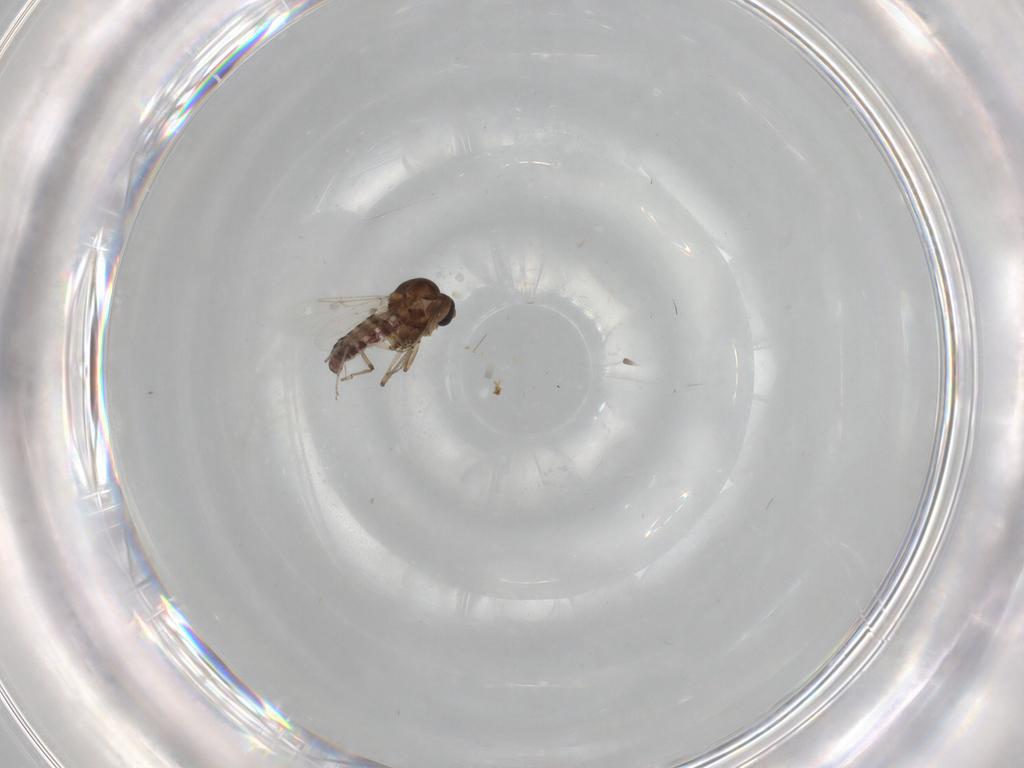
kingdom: Animalia
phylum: Arthropoda
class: Insecta
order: Diptera
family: Ceratopogonidae
